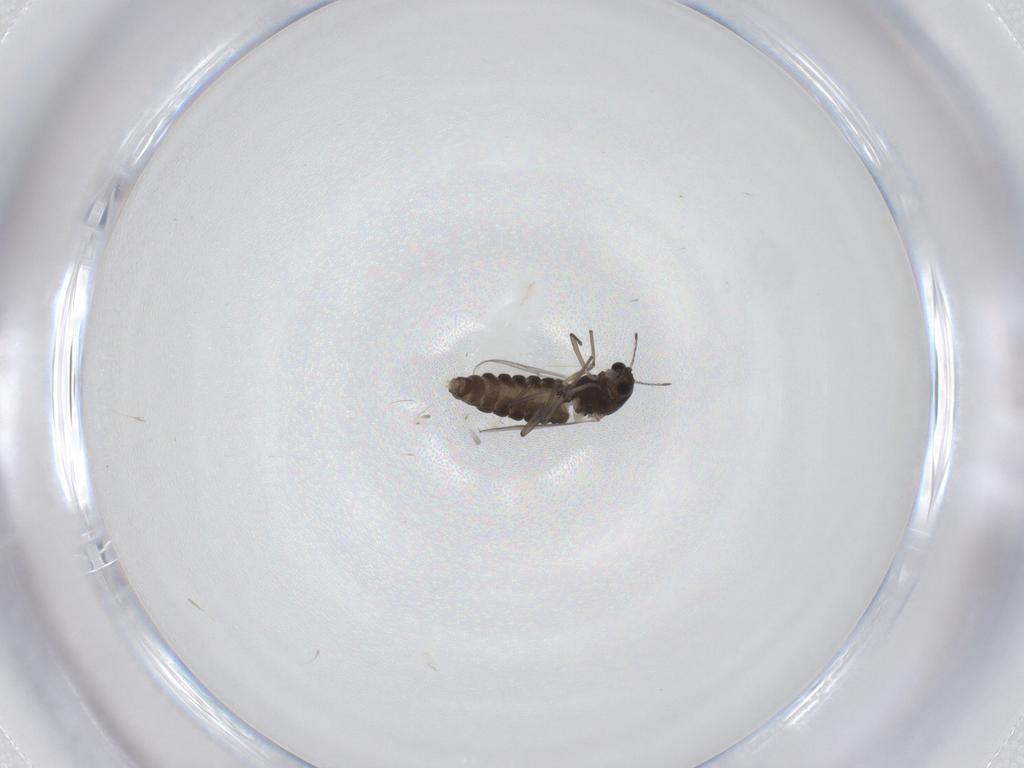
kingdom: Animalia
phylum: Arthropoda
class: Insecta
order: Diptera
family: Chironomidae
